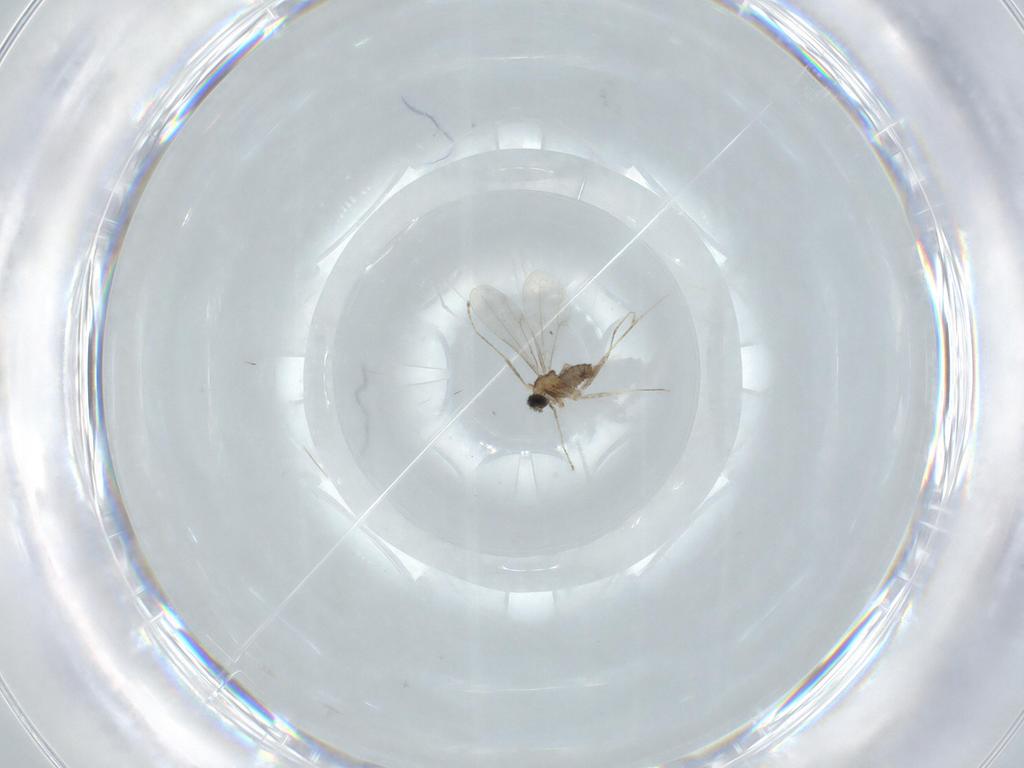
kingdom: Animalia
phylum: Arthropoda
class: Insecta
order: Diptera
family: Cecidomyiidae
